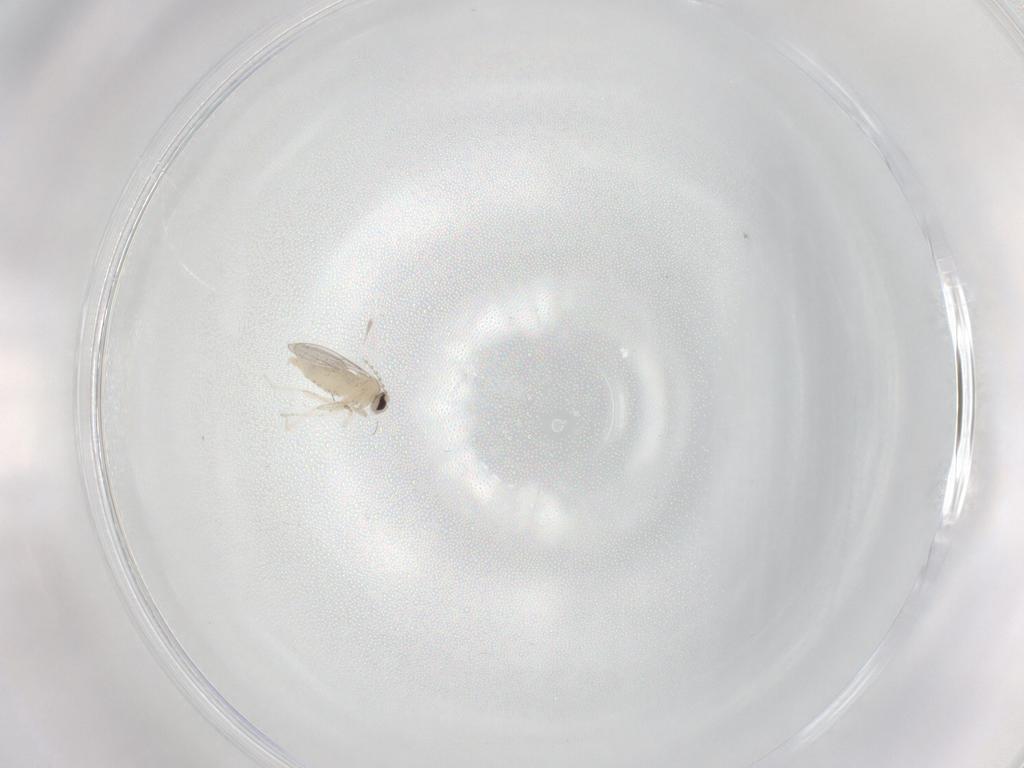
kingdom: Animalia
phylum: Arthropoda
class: Insecta
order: Diptera
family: Cecidomyiidae
